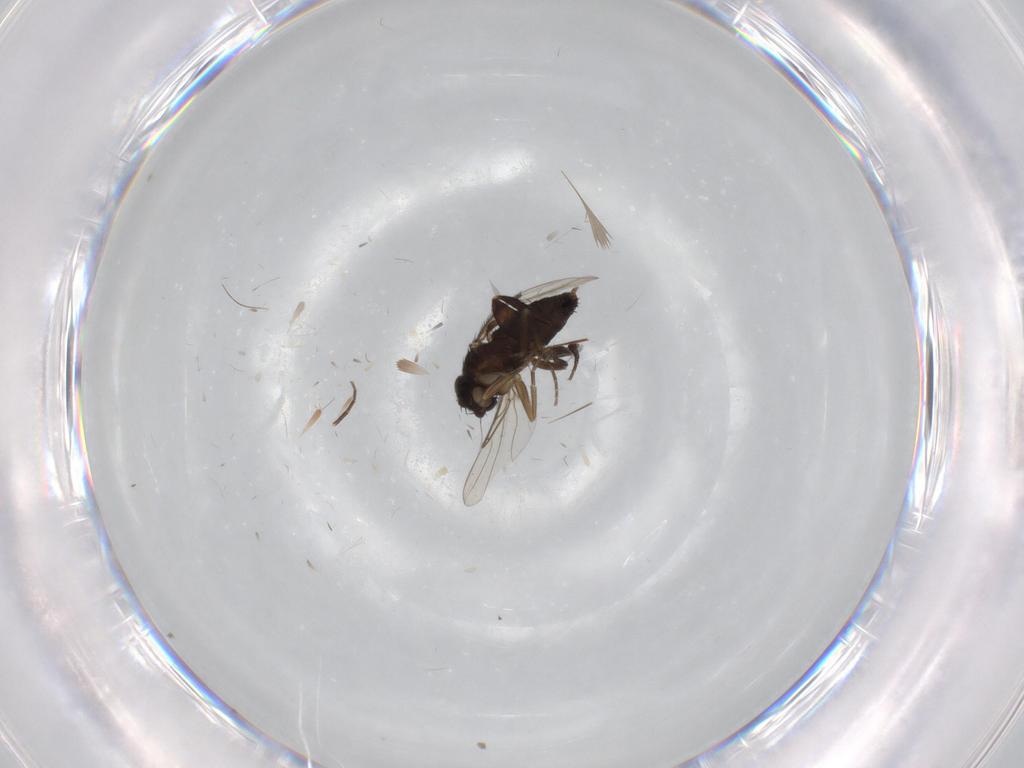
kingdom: Animalia
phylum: Arthropoda
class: Insecta
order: Diptera
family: Phoridae
